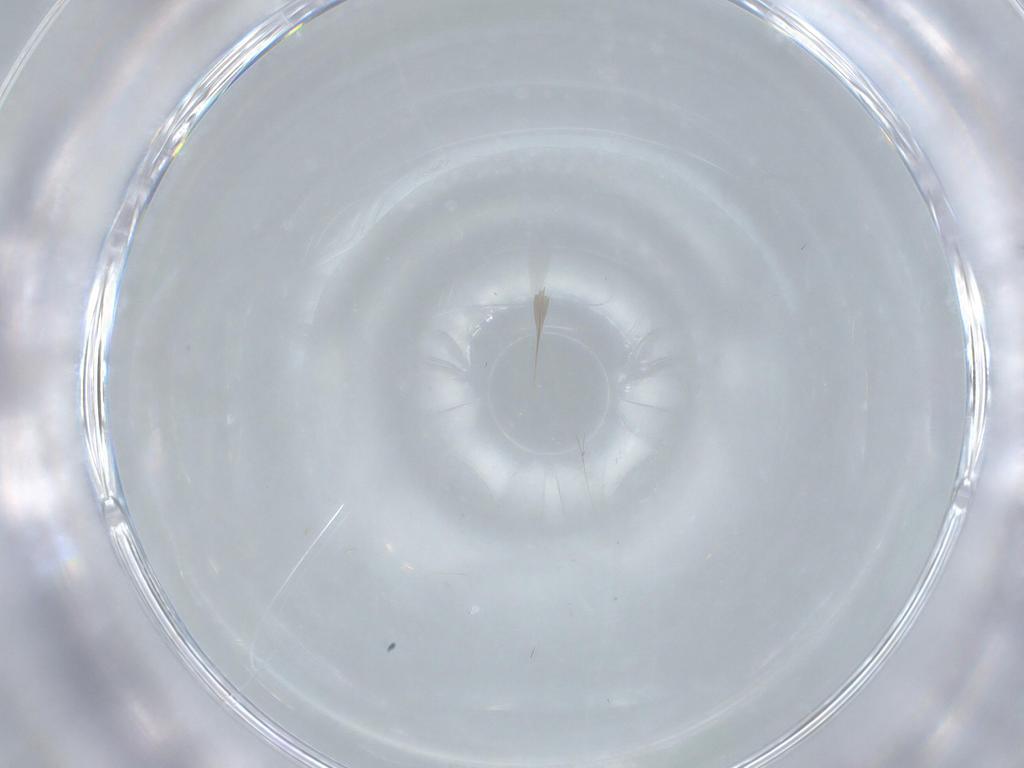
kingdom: Animalia
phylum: Arthropoda
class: Insecta
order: Diptera
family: Cecidomyiidae
